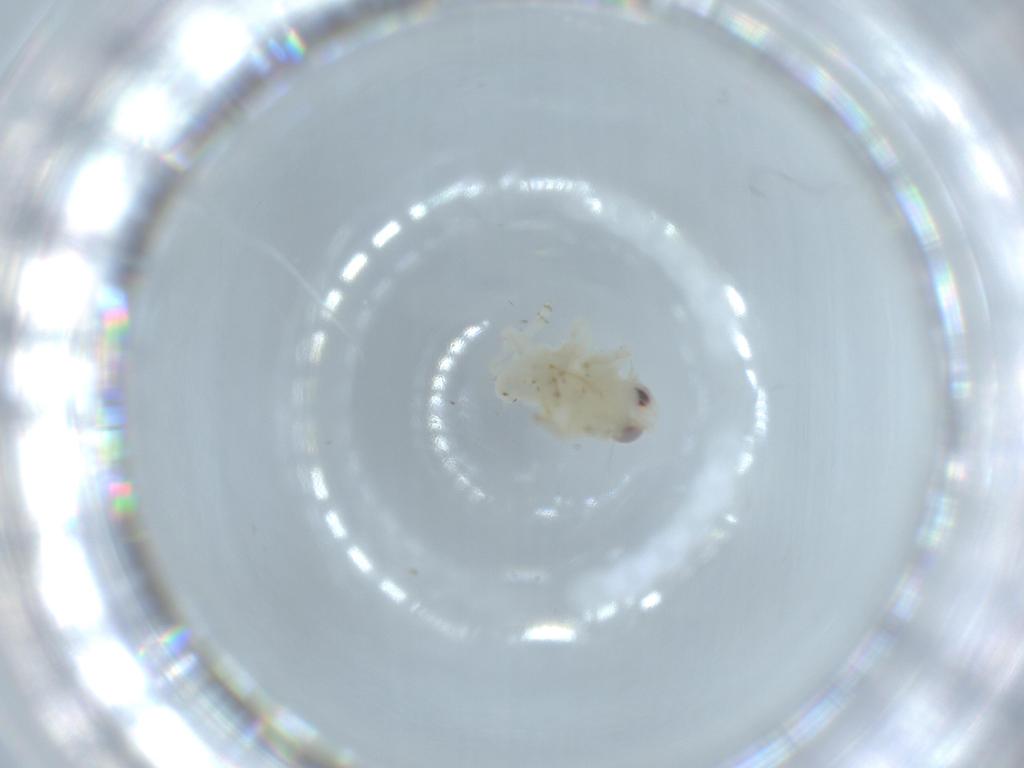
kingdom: Animalia
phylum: Arthropoda
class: Insecta
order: Hemiptera
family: Nogodinidae
